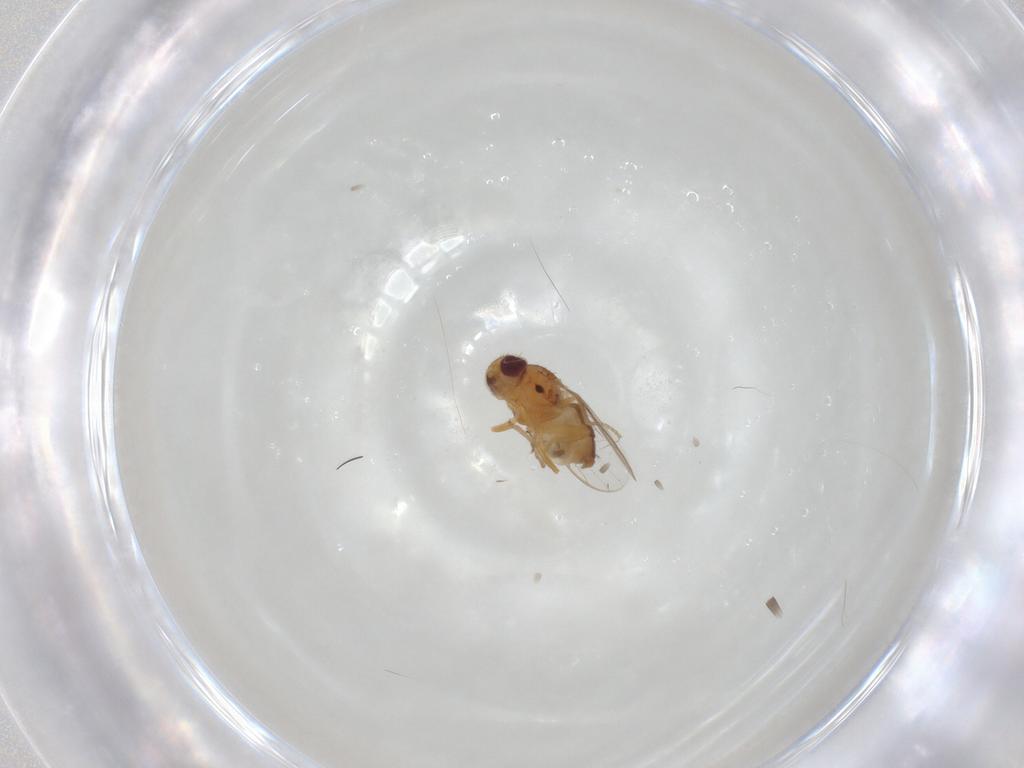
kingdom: Animalia
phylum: Arthropoda
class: Insecta
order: Diptera
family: Chloropidae
